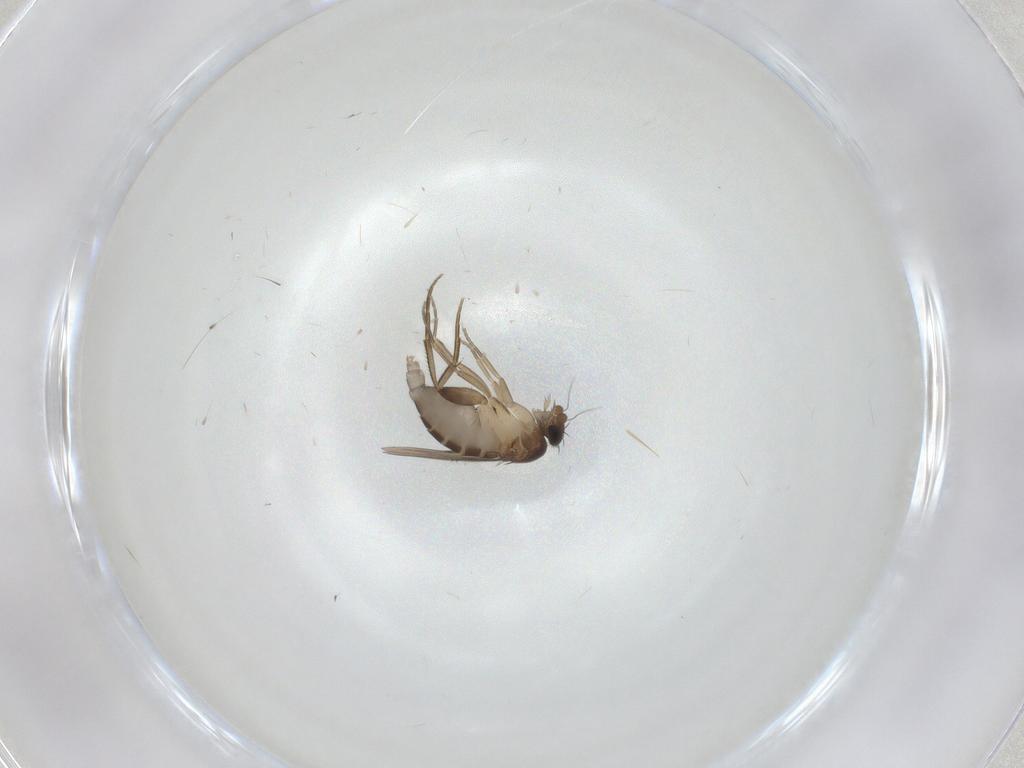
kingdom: Animalia
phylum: Arthropoda
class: Insecta
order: Diptera
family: Phoridae
